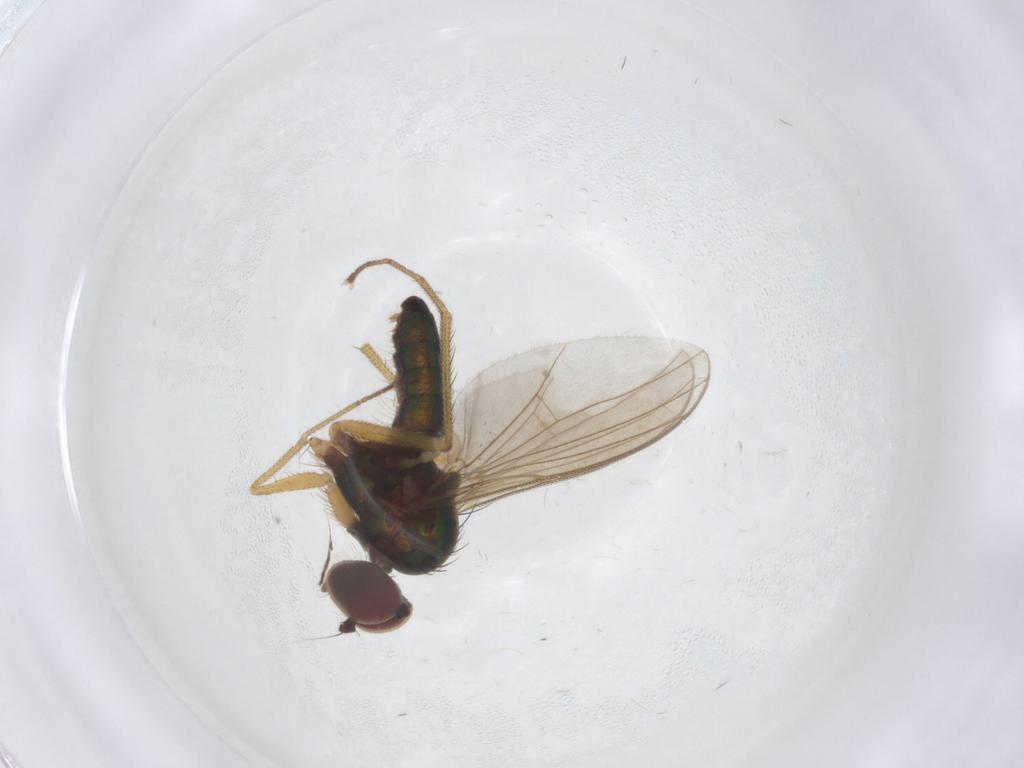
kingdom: Animalia
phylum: Arthropoda
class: Insecta
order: Diptera
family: Dolichopodidae
